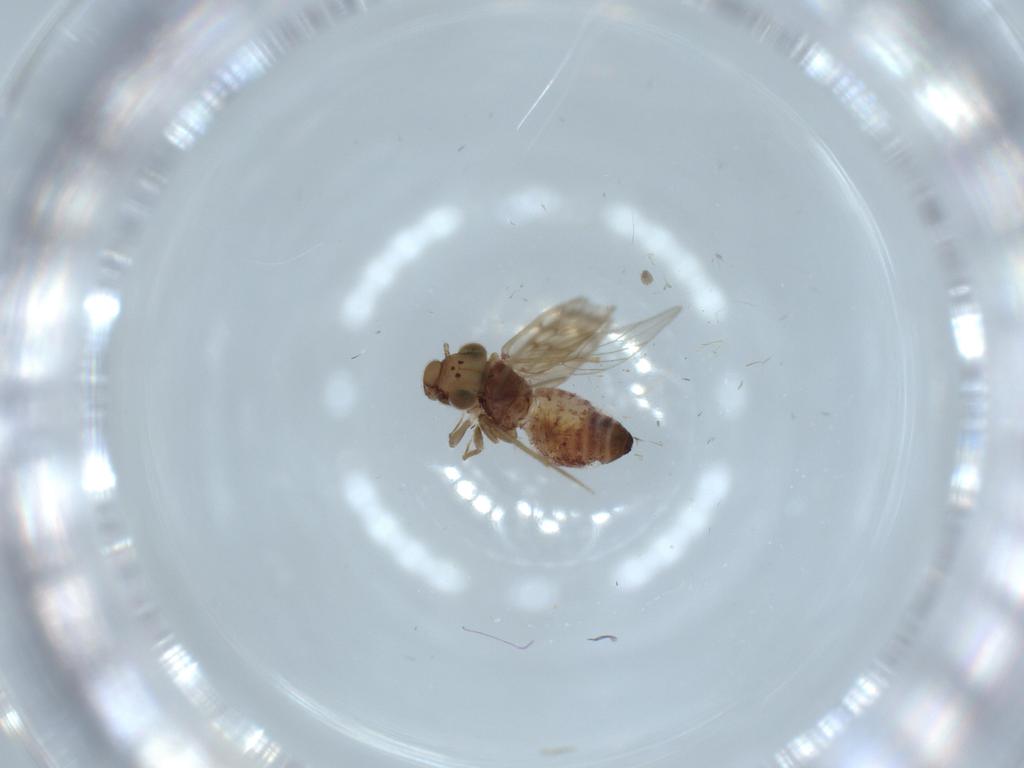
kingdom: Animalia
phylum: Arthropoda
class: Insecta
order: Psocodea
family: Lepidopsocidae
